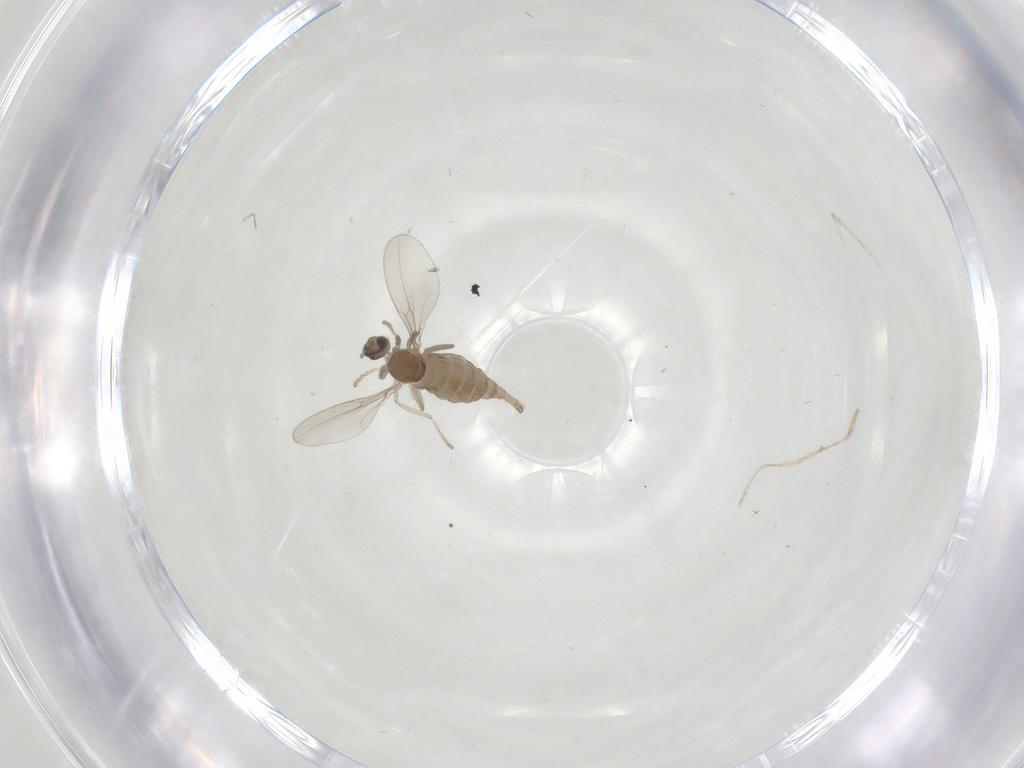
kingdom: Animalia
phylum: Arthropoda
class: Insecta
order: Diptera
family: Cecidomyiidae
